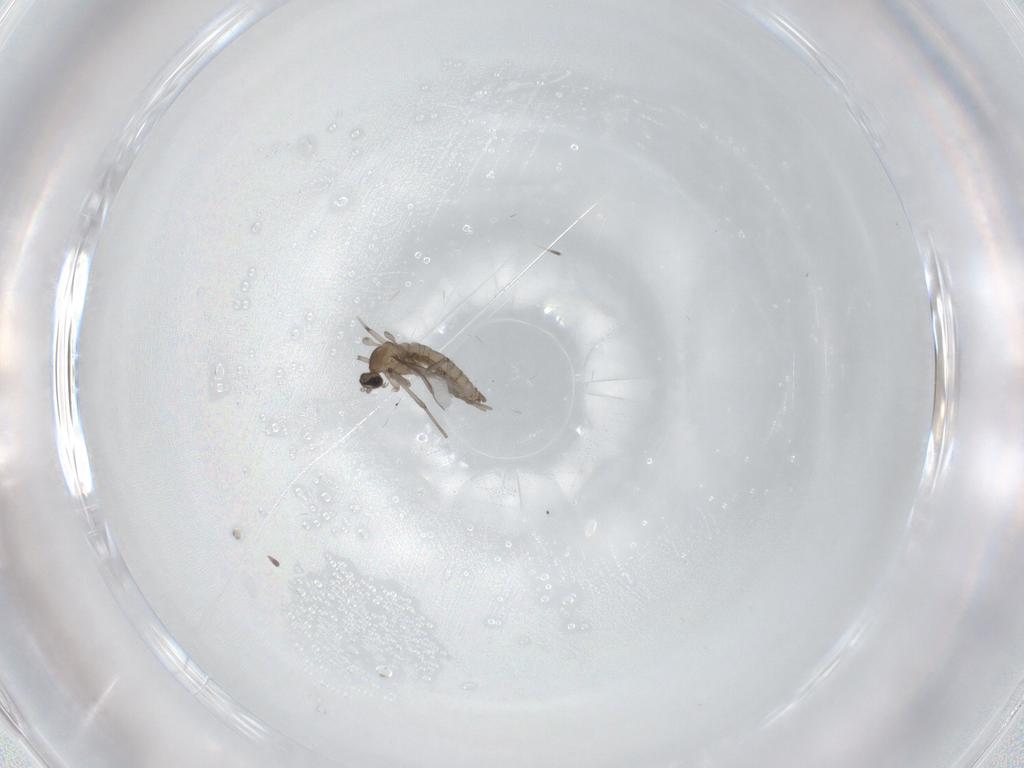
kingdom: Animalia
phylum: Arthropoda
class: Insecta
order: Diptera
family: Cecidomyiidae
